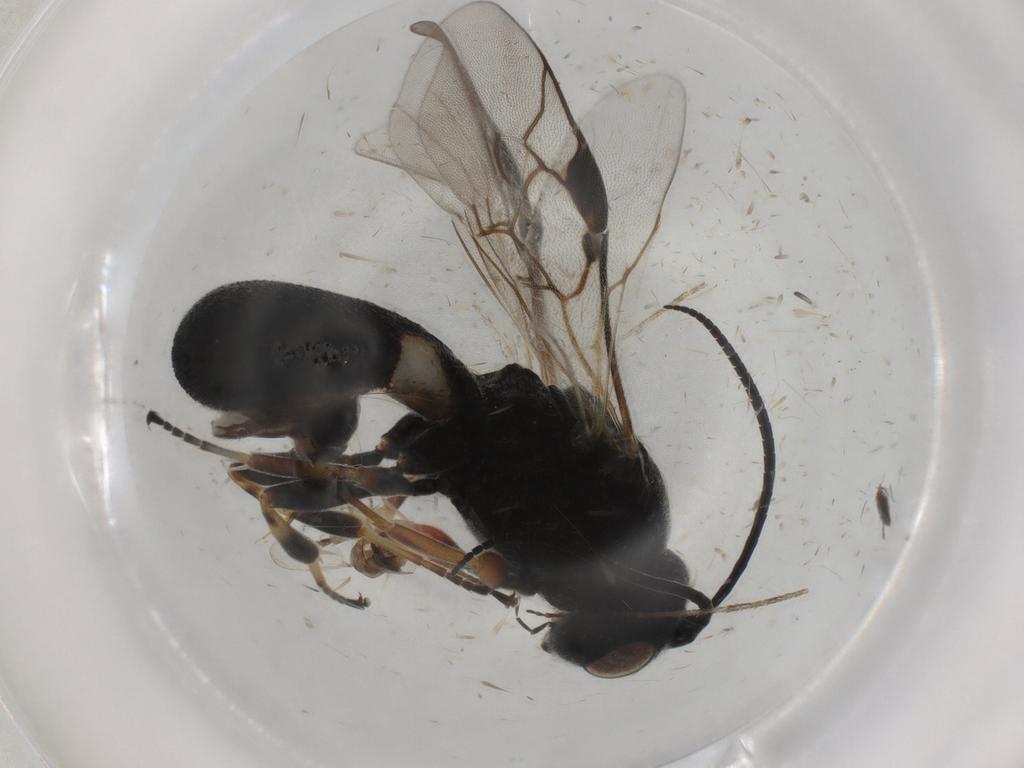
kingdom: Animalia
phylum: Arthropoda
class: Insecta
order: Hymenoptera
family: Braconidae
